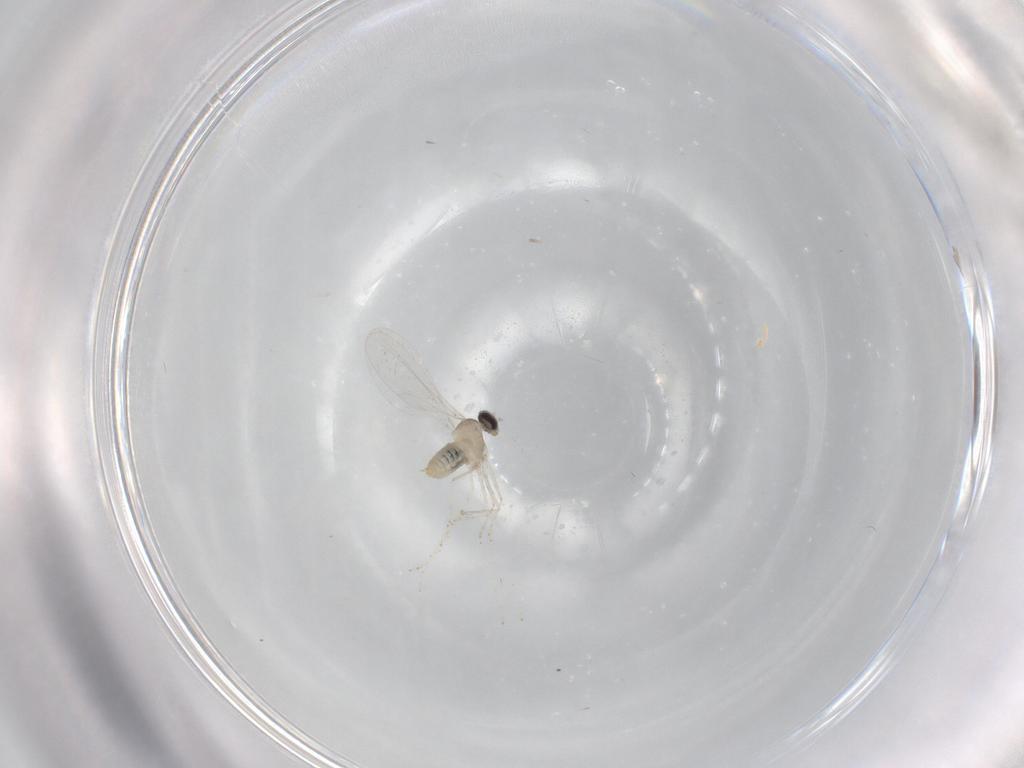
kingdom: Animalia
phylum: Arthropoda
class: Insecta
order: Diptera
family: Cecidomyiidae
